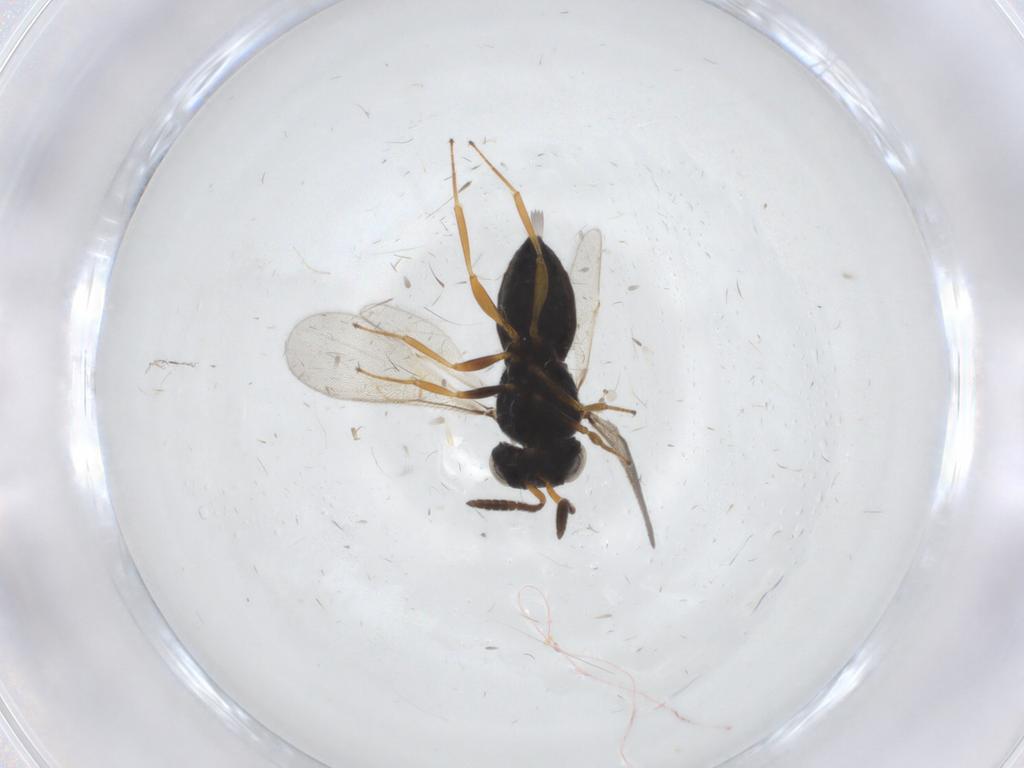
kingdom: Animalia
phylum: Arthropoda
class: Insecta
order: Hymenoptera
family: Scelionidae
